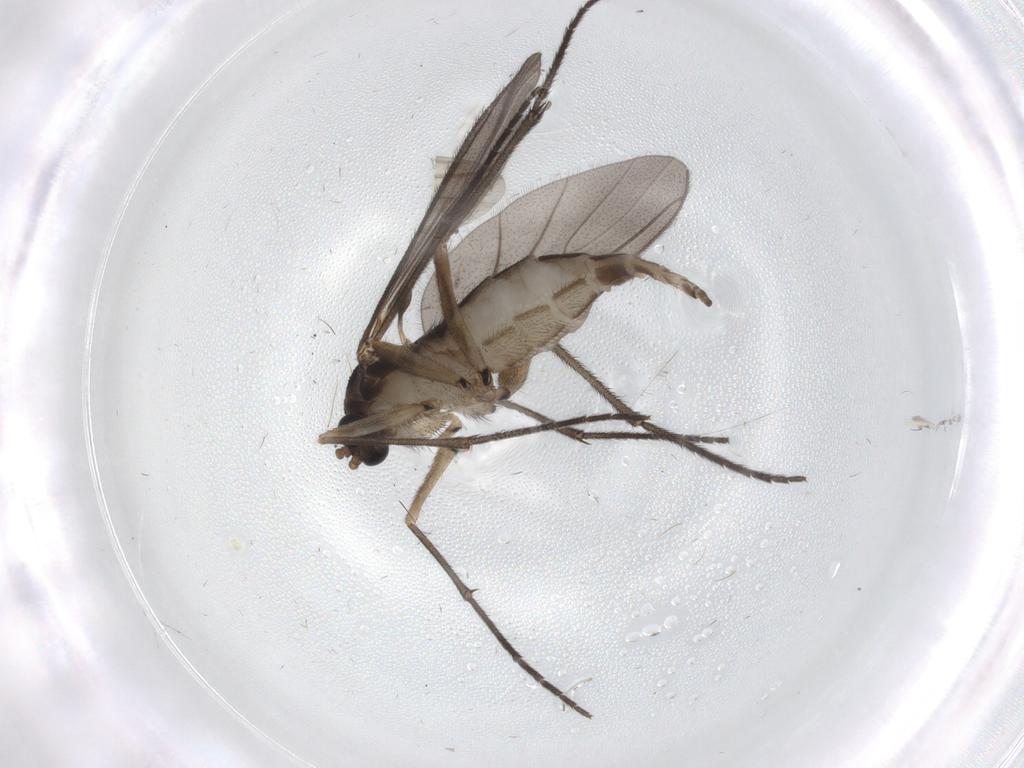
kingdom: Animalia
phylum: Arthropoda
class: Insecta
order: Diptera
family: Sciaridae
